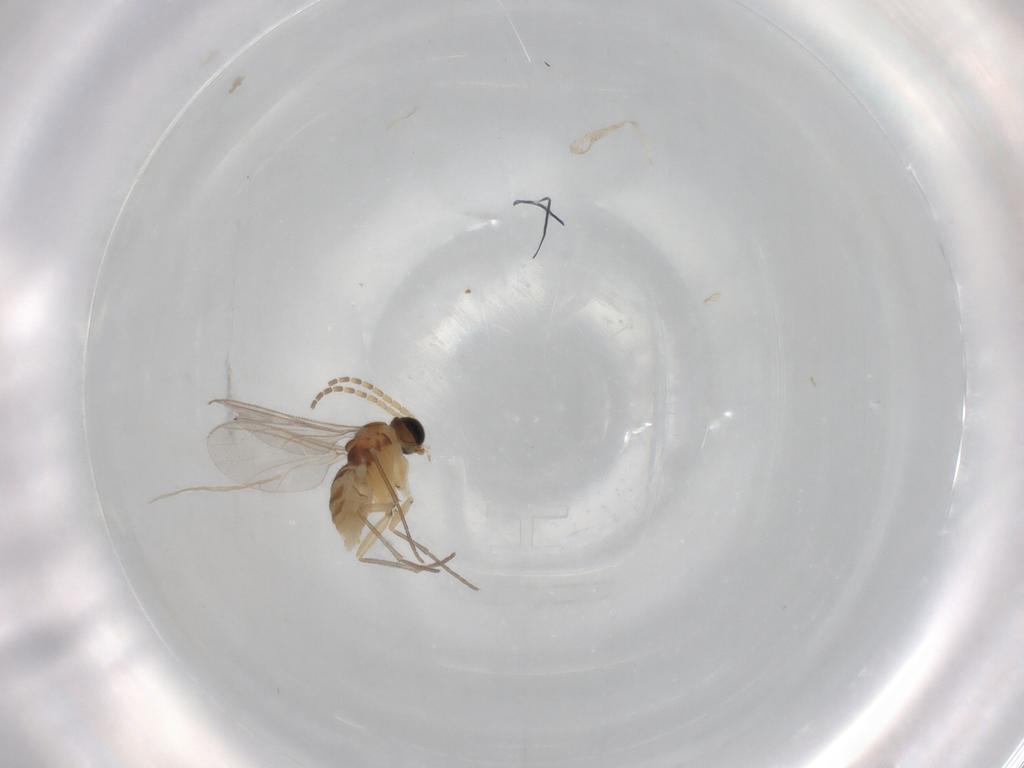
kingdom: Animalia
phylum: Arthropoda
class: Insecta
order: Diptera
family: Sciaridae
